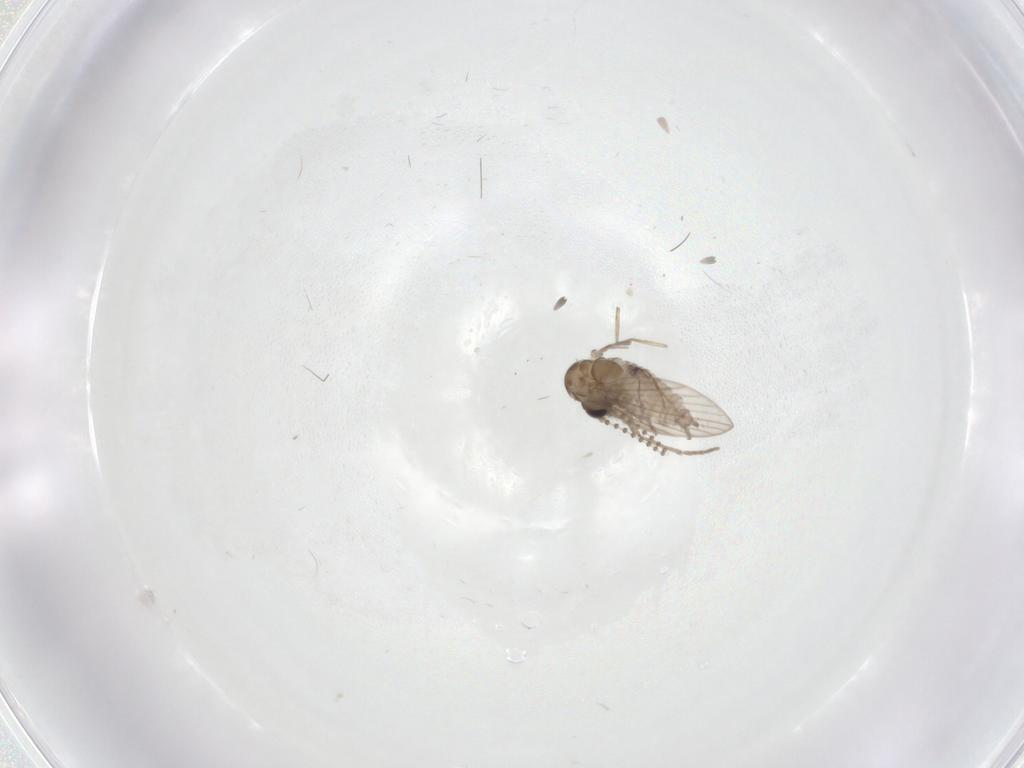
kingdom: Animalia
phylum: Arthropoda
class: Insecta
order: Diptera
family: Psychodidae
